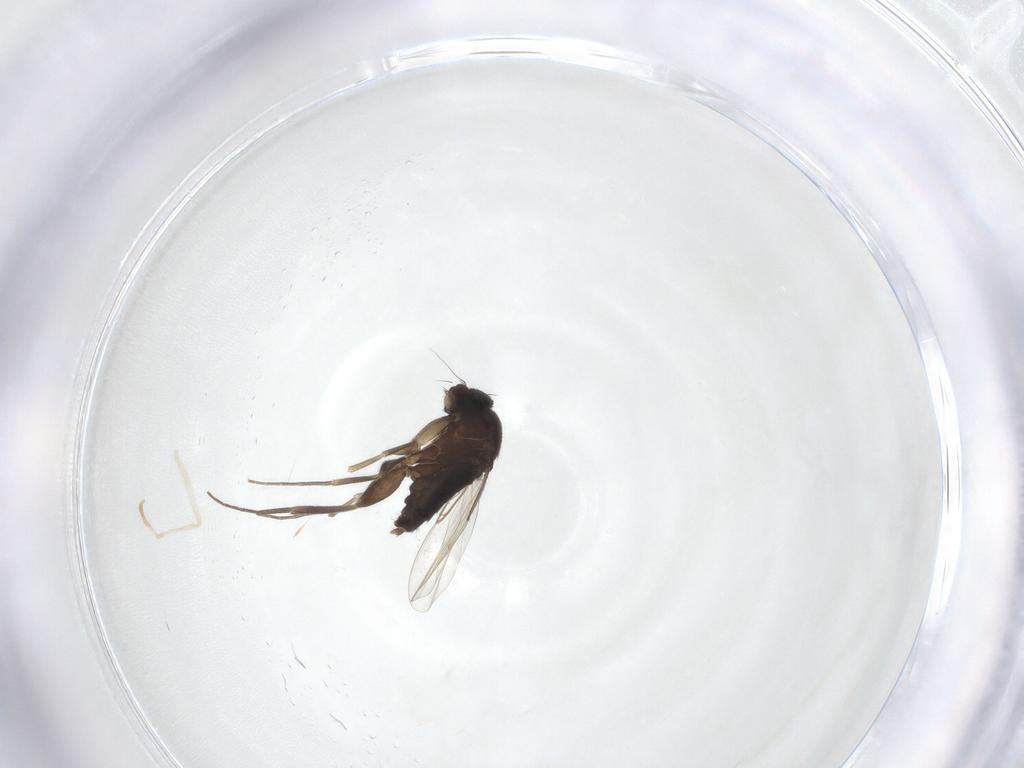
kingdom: Animalia
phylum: Arthropoda
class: Insecta
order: Diptera
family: Phoridae
